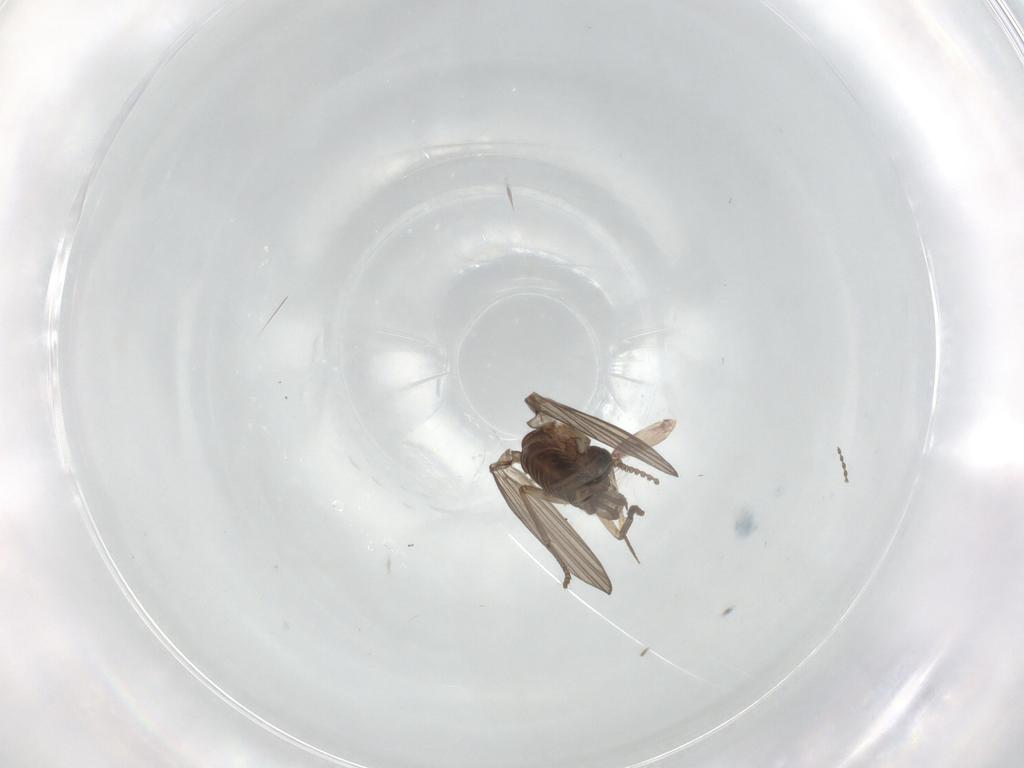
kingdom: Animalia
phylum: Arthropoda
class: Insecta
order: Diptera
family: Psychodidae
